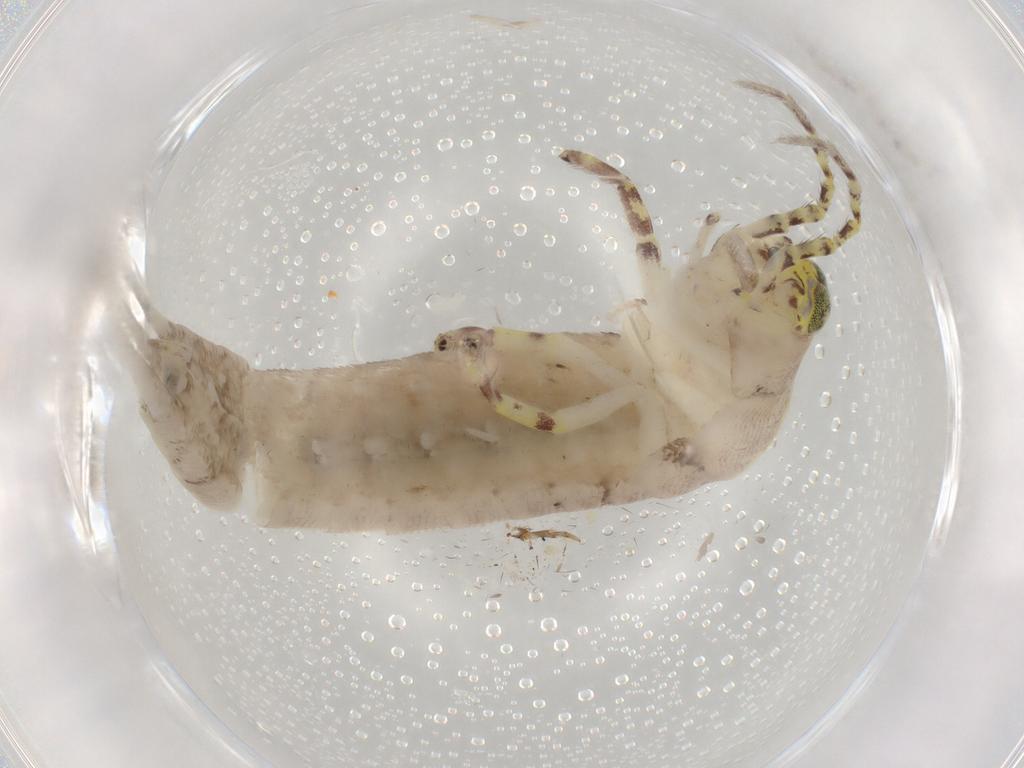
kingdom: Animalia
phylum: Arthropoda
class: Insecta
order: Archaeognatha
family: Machilidae
